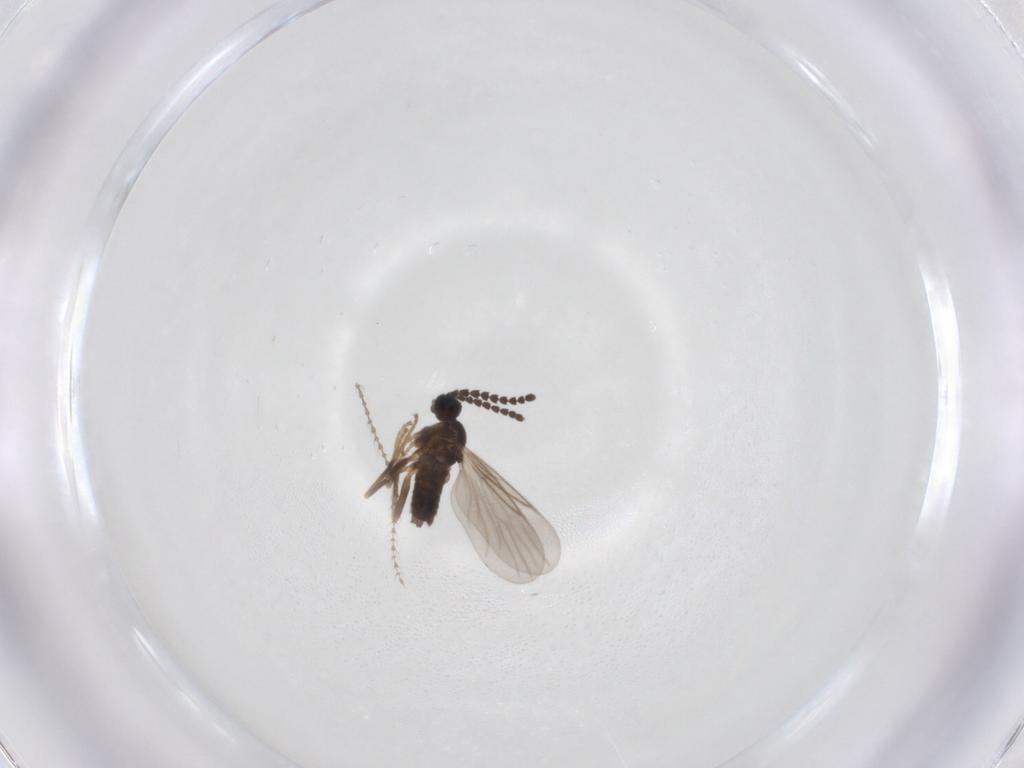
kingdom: Animalia
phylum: Arthropoda
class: Insecta
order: Diptera
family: Scatopsidae
